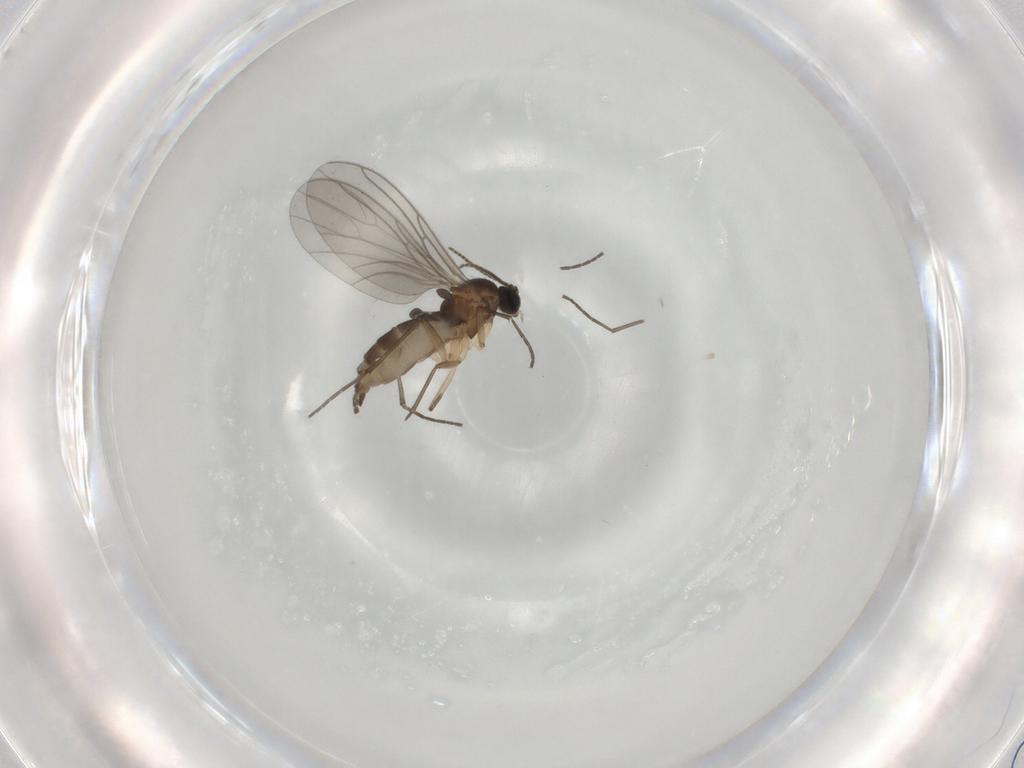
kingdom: Animalia
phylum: Arthropoda
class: Insecta
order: Diptera
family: Sciaridae
